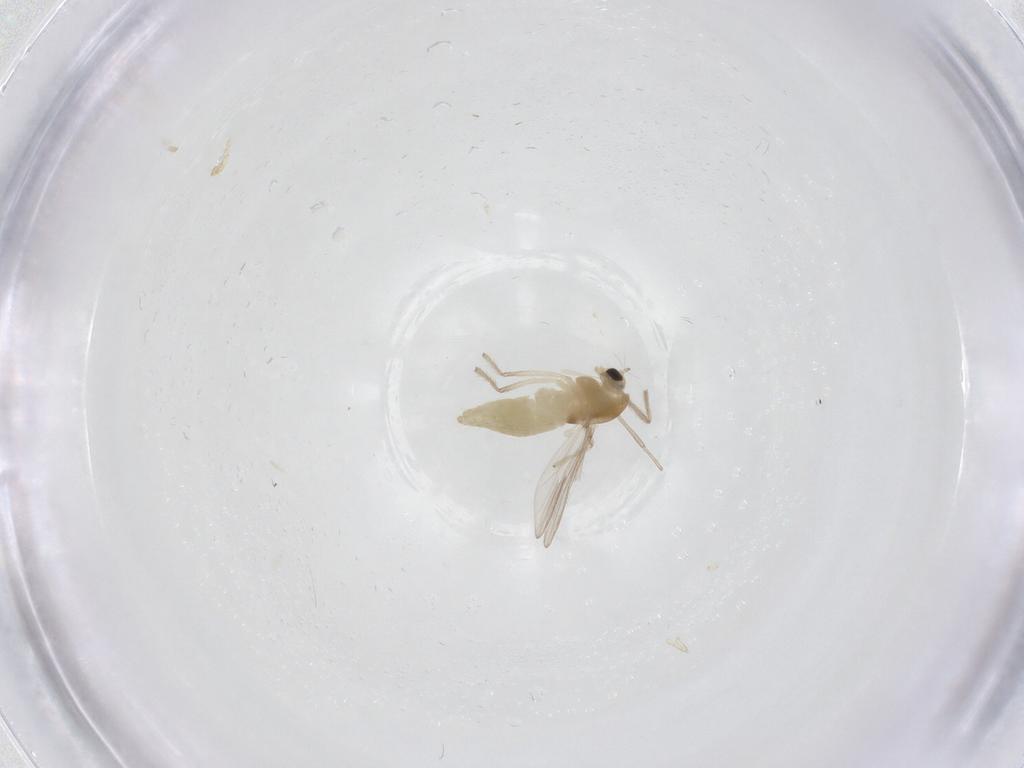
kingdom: Animalia
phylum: Arthropoda
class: Insecta
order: Diptera
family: Chironomidae
